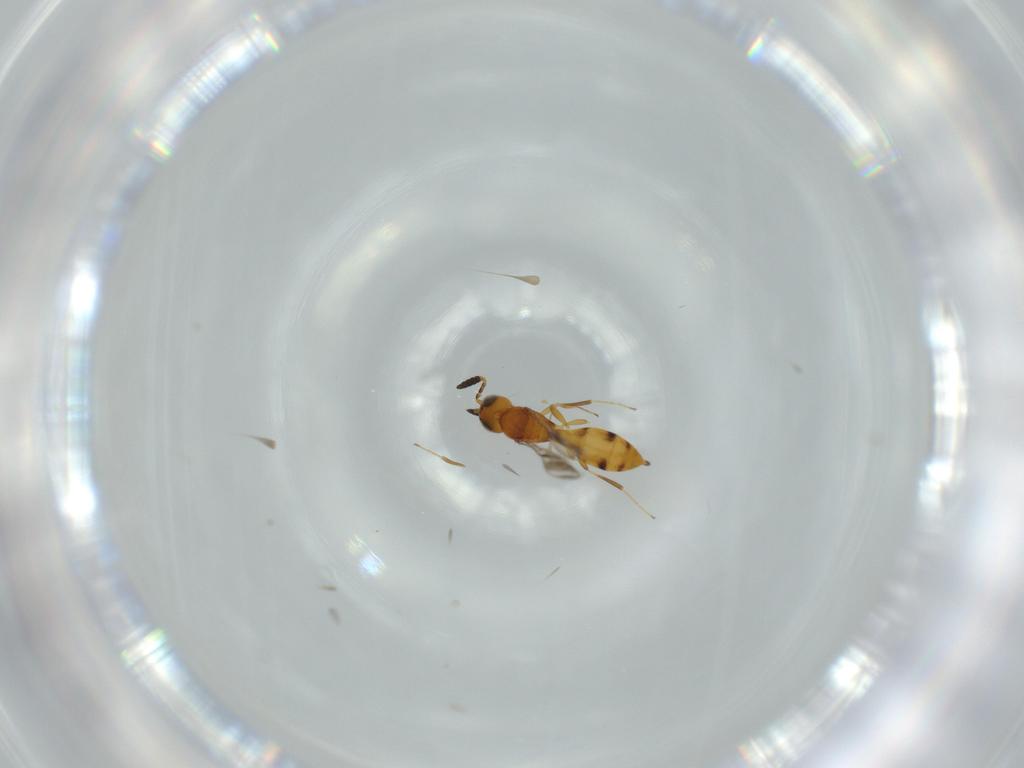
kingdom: Animalia
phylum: Arthropoda
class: Insecta
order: Hymenoptera
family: Scelionidae
